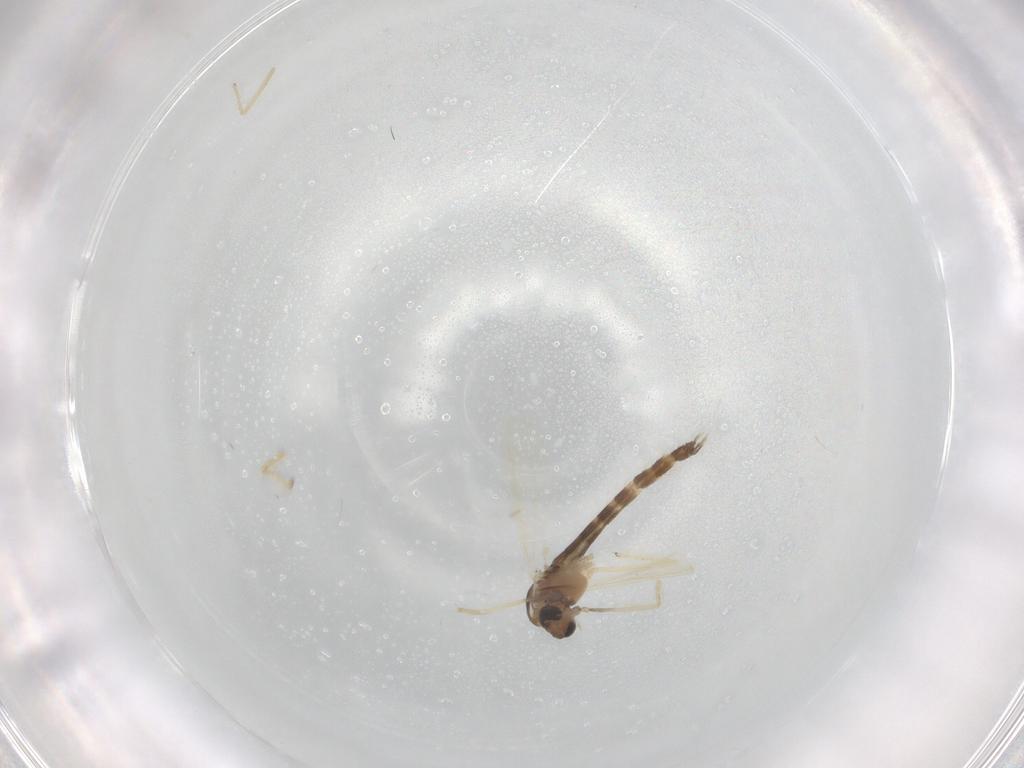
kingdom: Animalia
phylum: Arthropoda
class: Insecta
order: Diptera
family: Chironomidae
